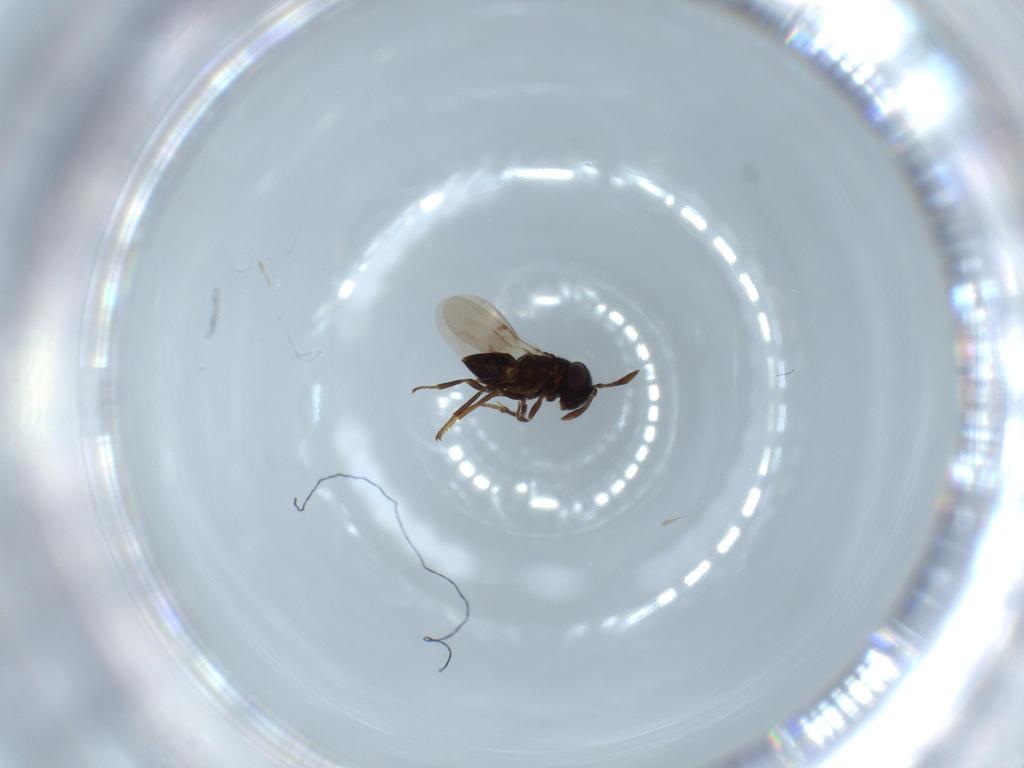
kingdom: Animalia
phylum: Arthropoda
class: Insecta
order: Hymenoptera
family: Encyrtidae
